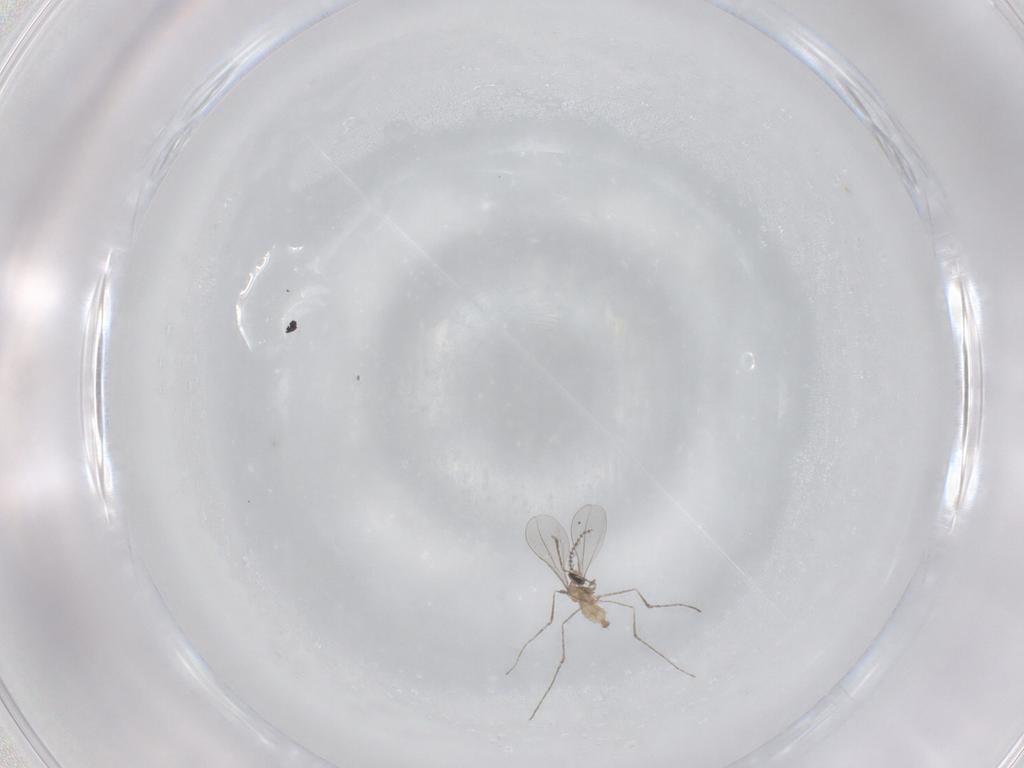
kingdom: Animalia
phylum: Arthropoda
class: Insecta
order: Diptera
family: Cecidomyiidae
